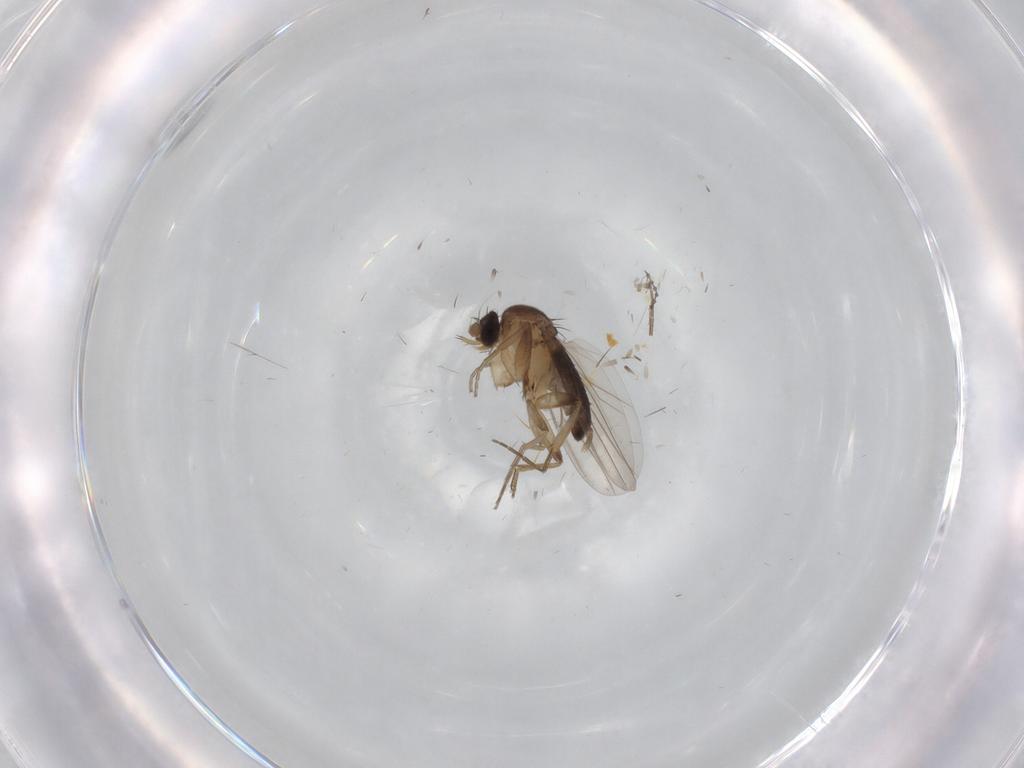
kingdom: Animalia
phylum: Arthropoda
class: Insecta
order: Diptera
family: Phoridae
